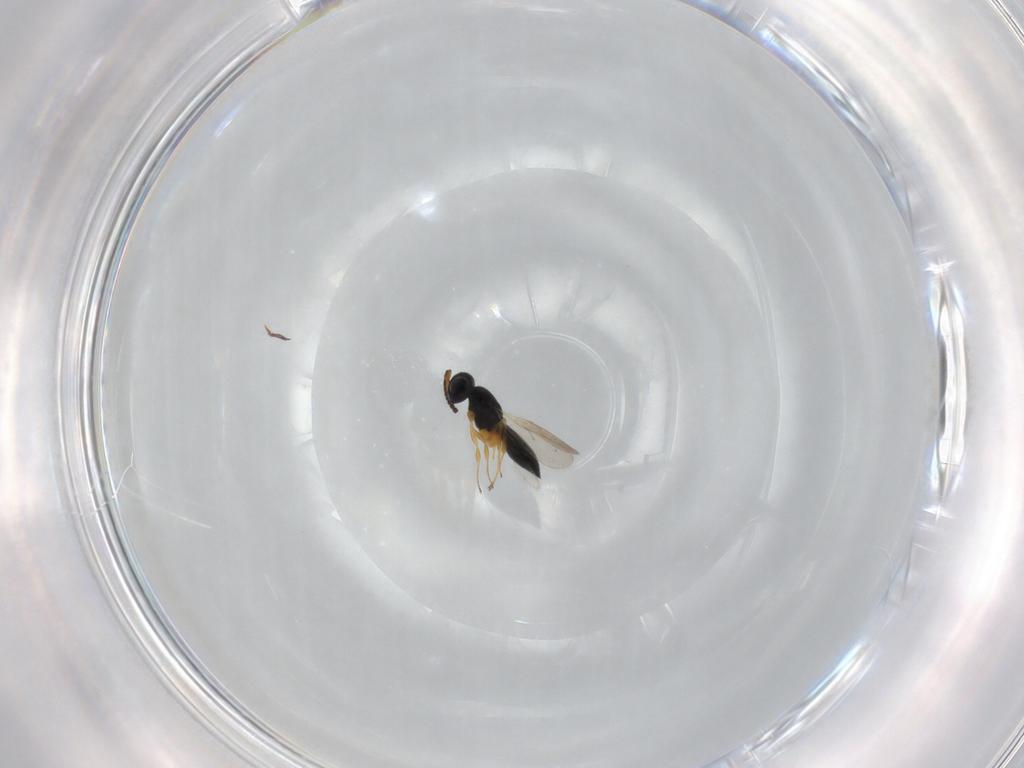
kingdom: Animalia
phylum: Arthropoda
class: Insecta
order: Hymenoptera
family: Scelionidae
